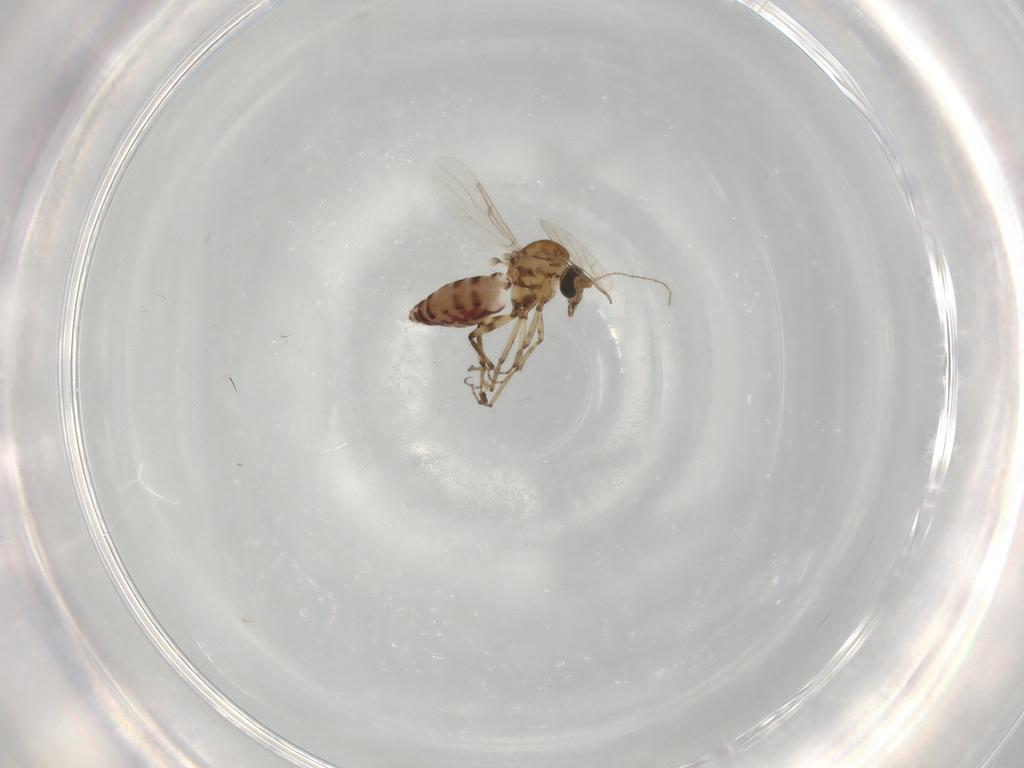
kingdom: Animalia
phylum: Arthropoda
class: Insecta
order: Diptera
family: Ceratopogonidae
